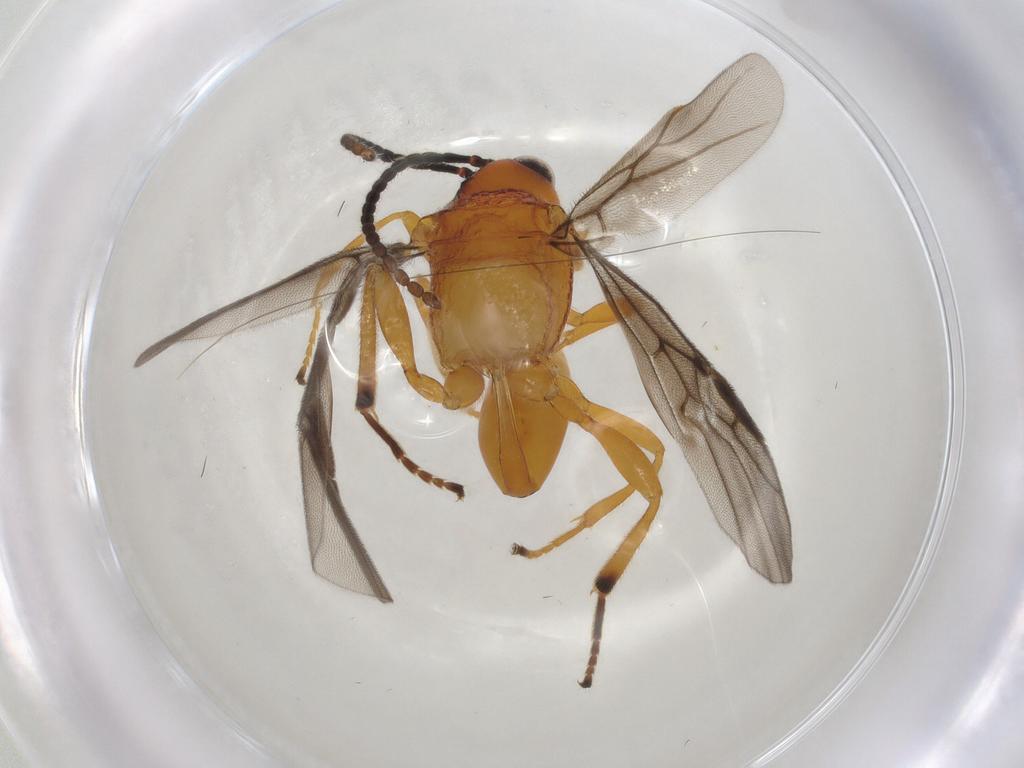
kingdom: Animalia
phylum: Arthropoda
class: Insecta
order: Hymenoptera
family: Braconidae
